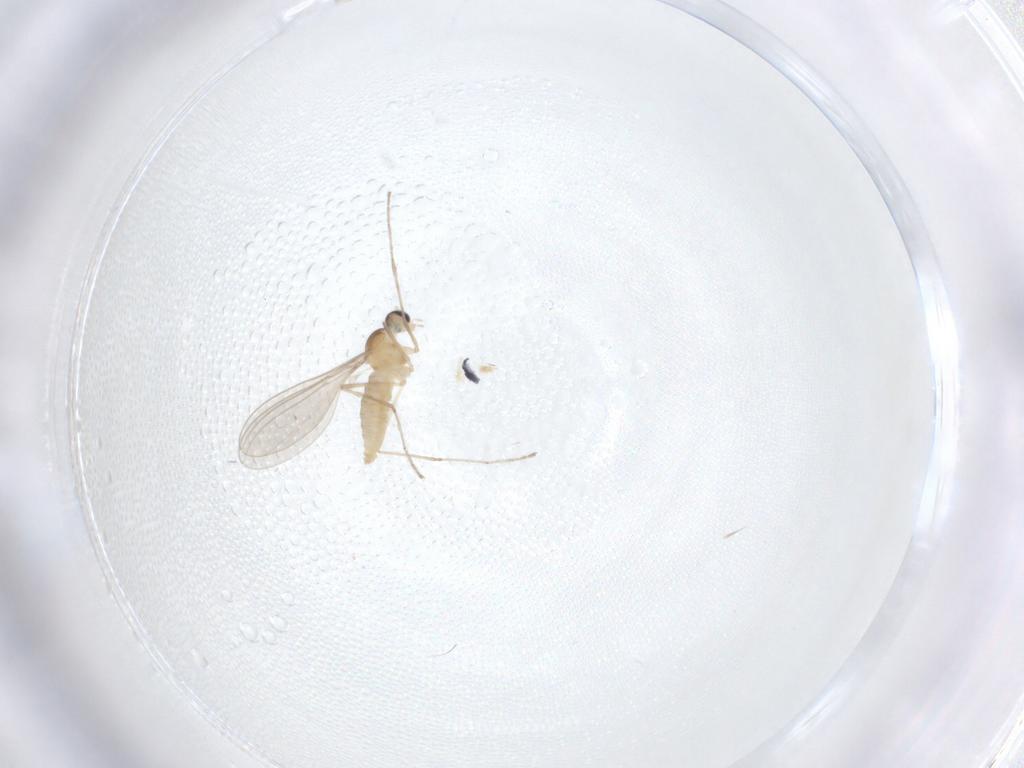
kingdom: Animalia
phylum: Arthropoda
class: Insecta
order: Diptera
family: Cecidomyiidae
